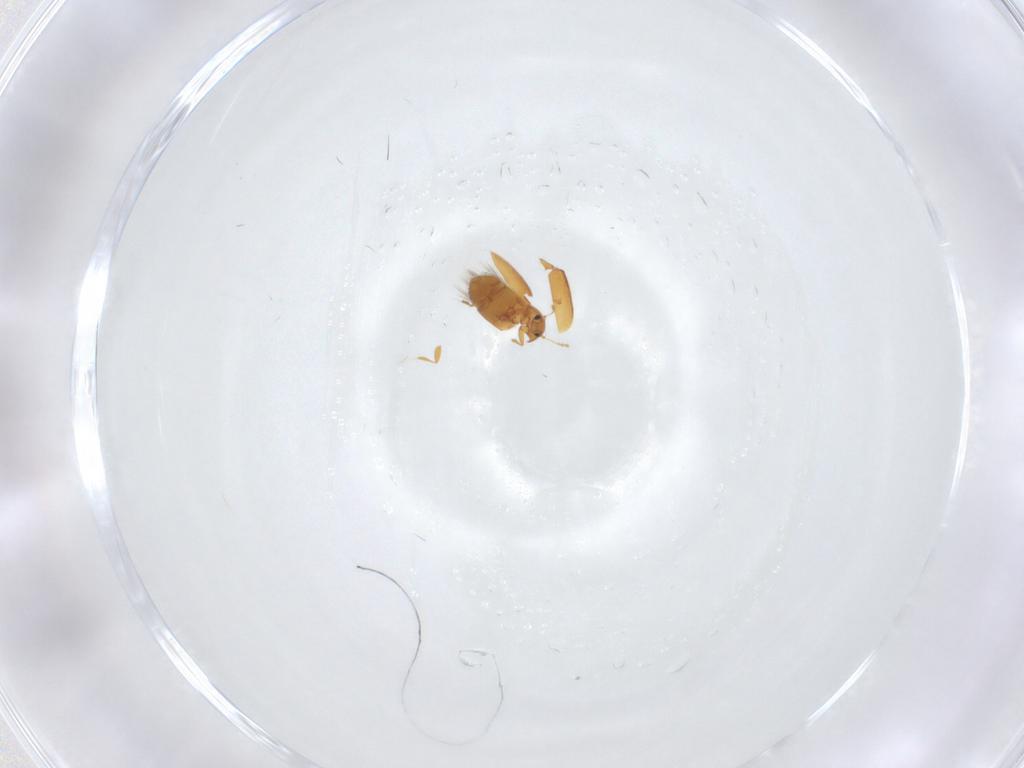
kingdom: Animalia
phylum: Arthropoda
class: Insecta
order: Coleoptera
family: Ptiliidae
